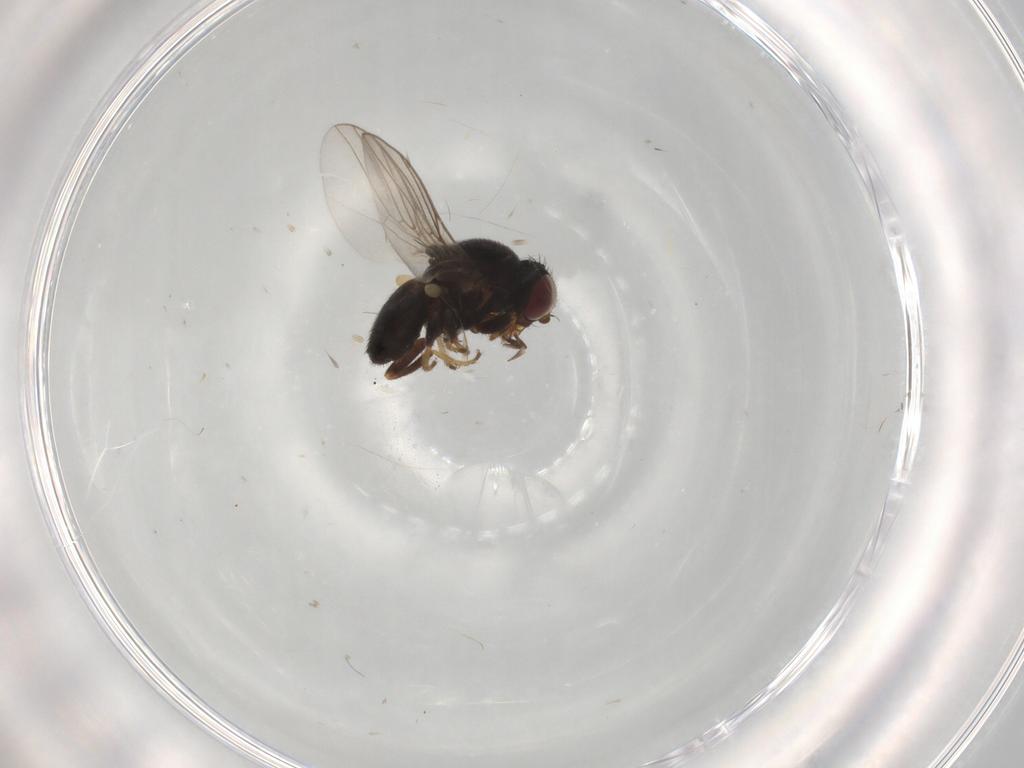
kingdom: Animalia
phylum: Arthropoda
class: Insecta
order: Diptera
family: Chloropidae
